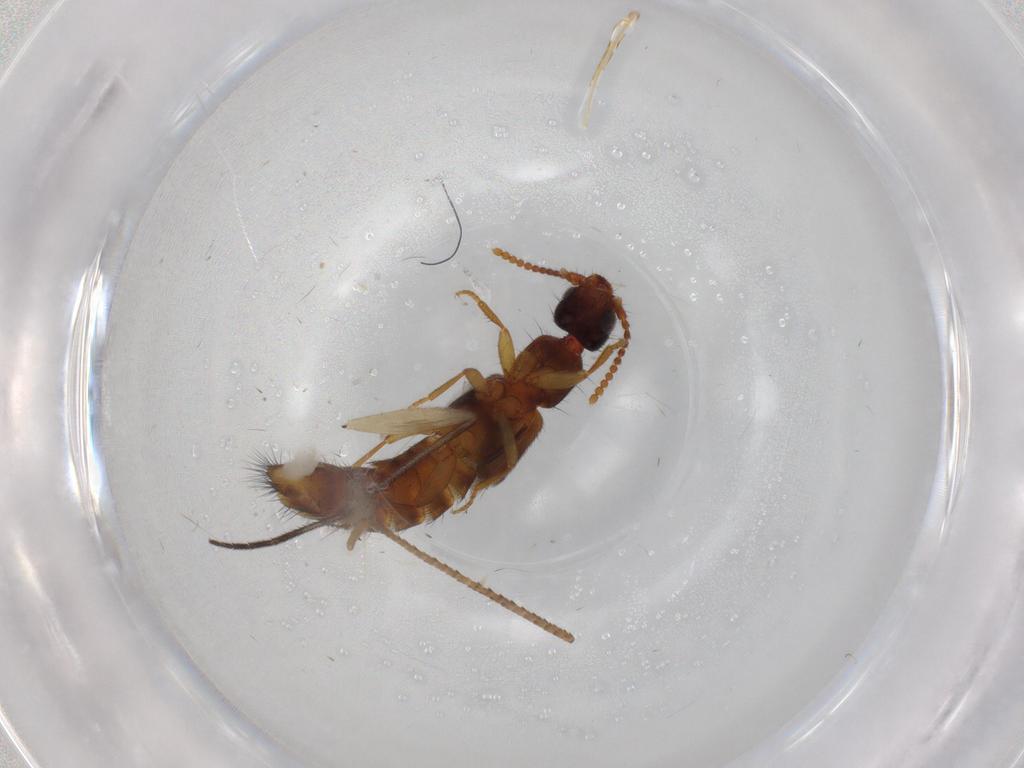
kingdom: Animalia
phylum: Arthropoda
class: Insecta
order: Coleoptera
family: Staphylinidae
